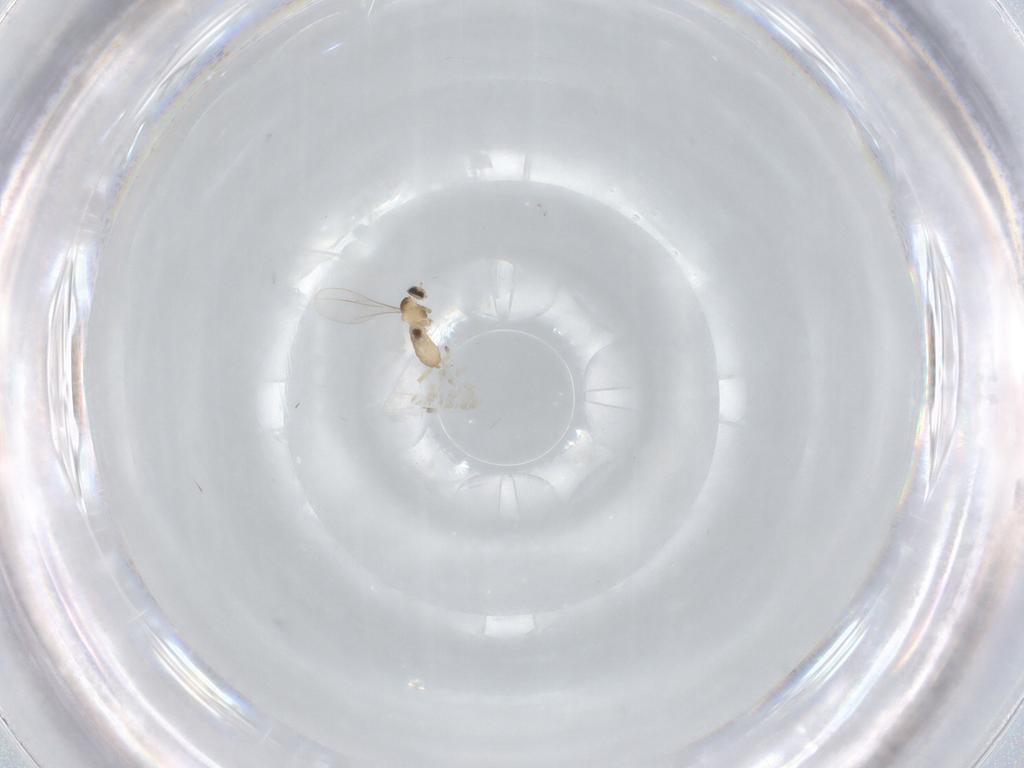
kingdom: Animalia
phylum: Arthropoda
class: Insecta
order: Diptera
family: Cecidomyiidae
